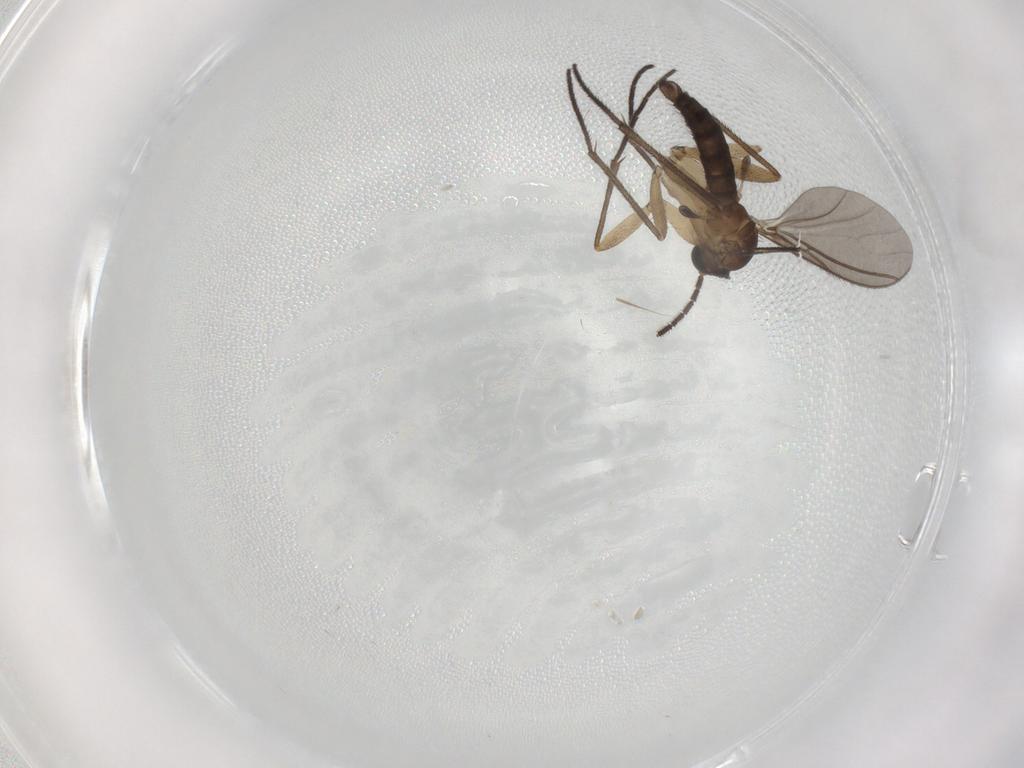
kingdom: Animalia
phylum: Arthropoda
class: Insecta
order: Diptera
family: Sciaridae
